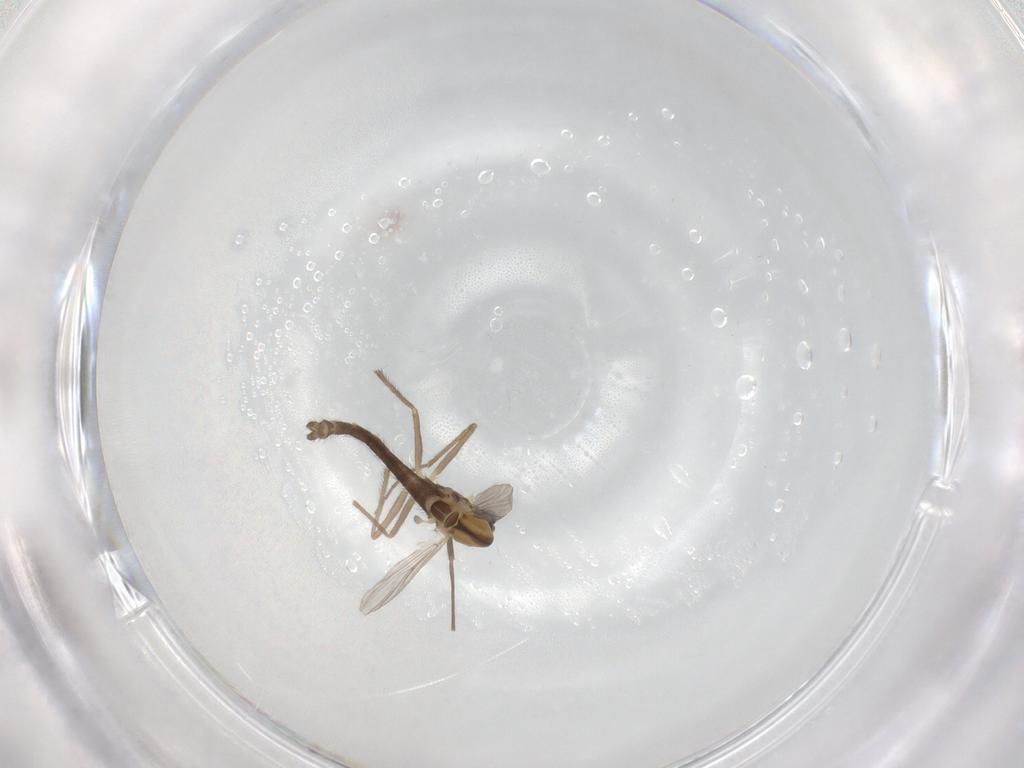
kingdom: Animalia
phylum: Arthropoda
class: Insecta
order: Diptera
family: Chironomidae
